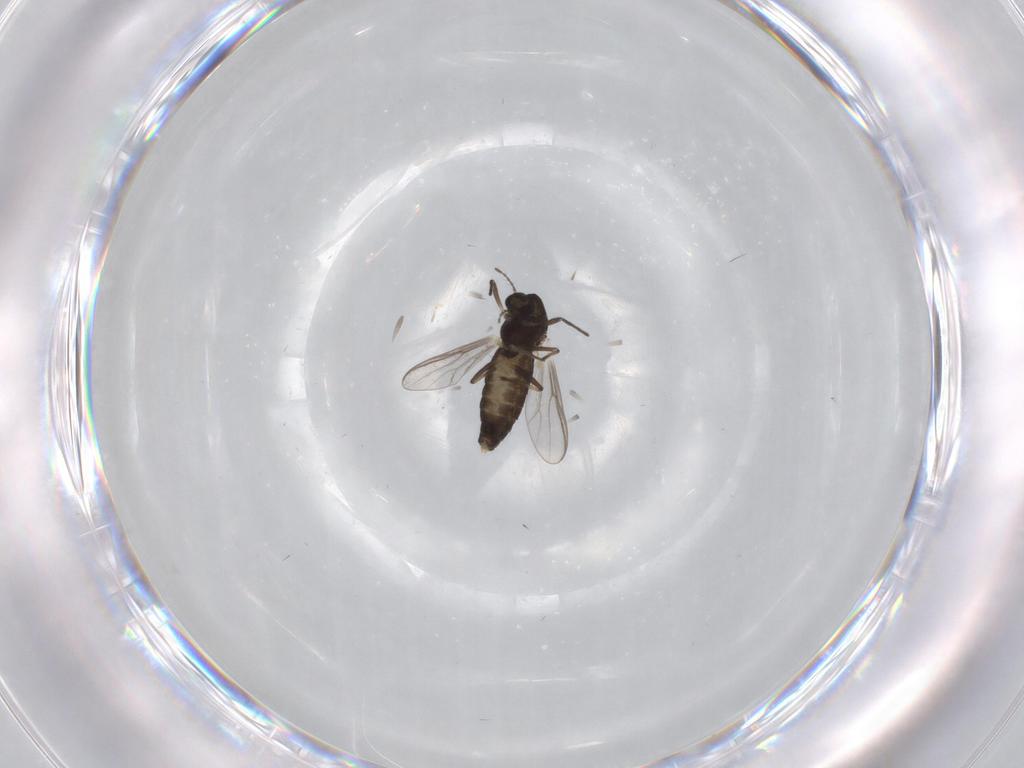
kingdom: Animalia
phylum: Arthropoda
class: Insecta
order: Diptera
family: Chironomidae
